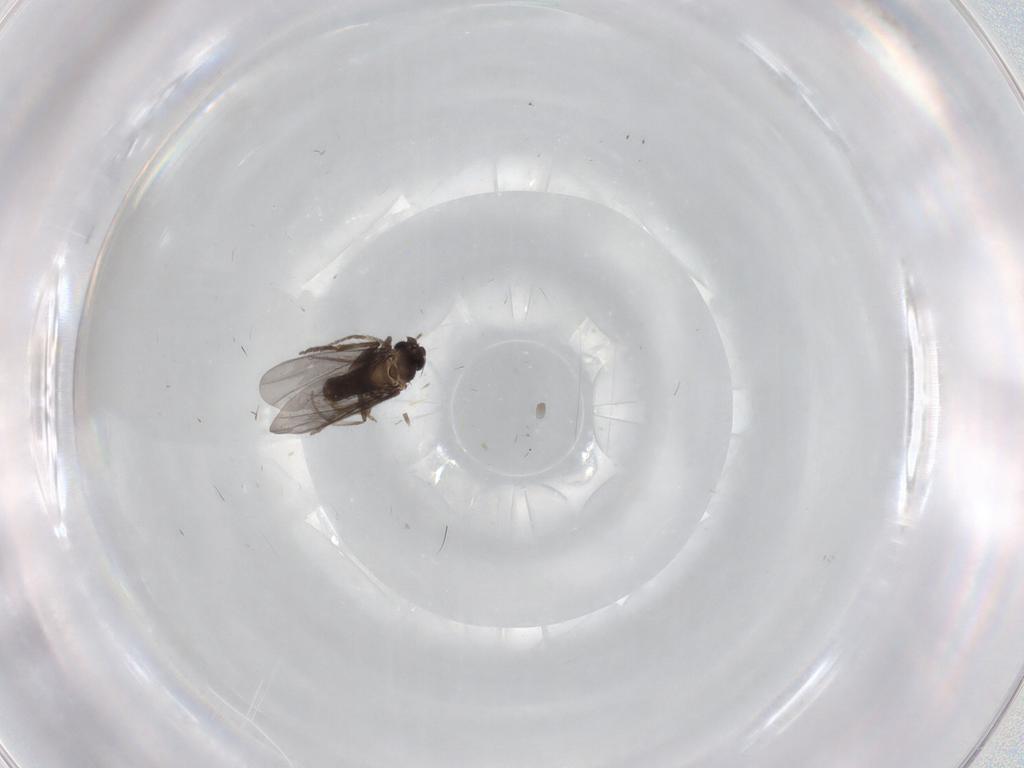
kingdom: Animalia
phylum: Arthropoda
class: Insecta
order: Diptera
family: Phoridae
